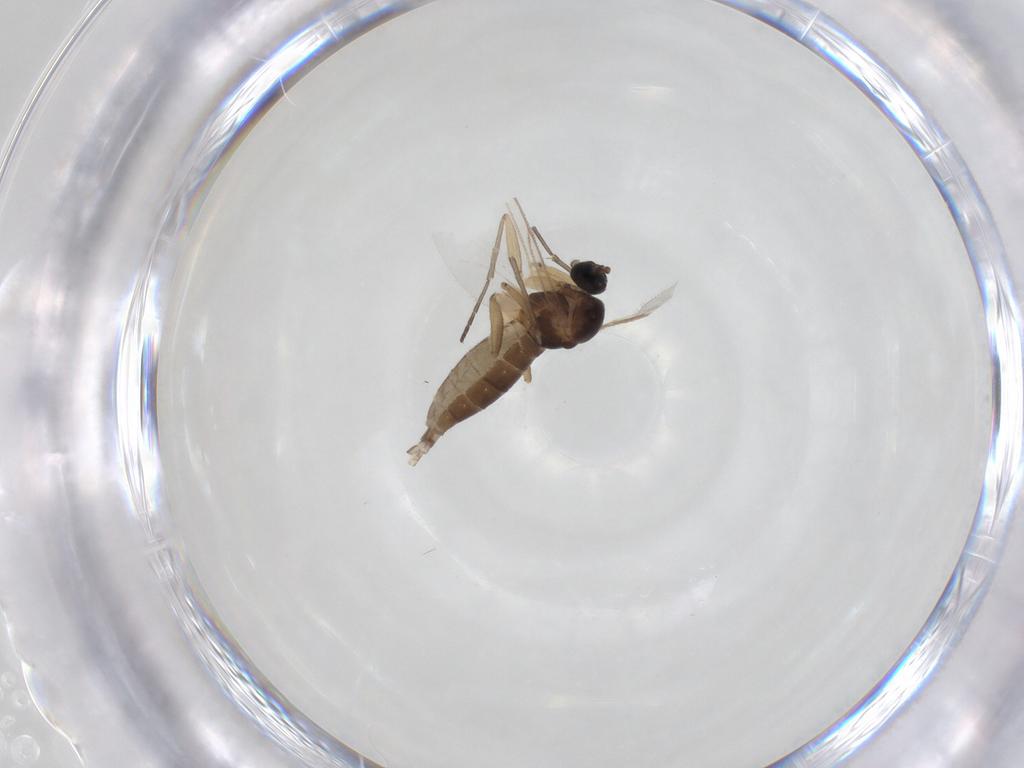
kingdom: Animalia
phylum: Arthropoda
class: Insecta
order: Diptera
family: Sciaridae
